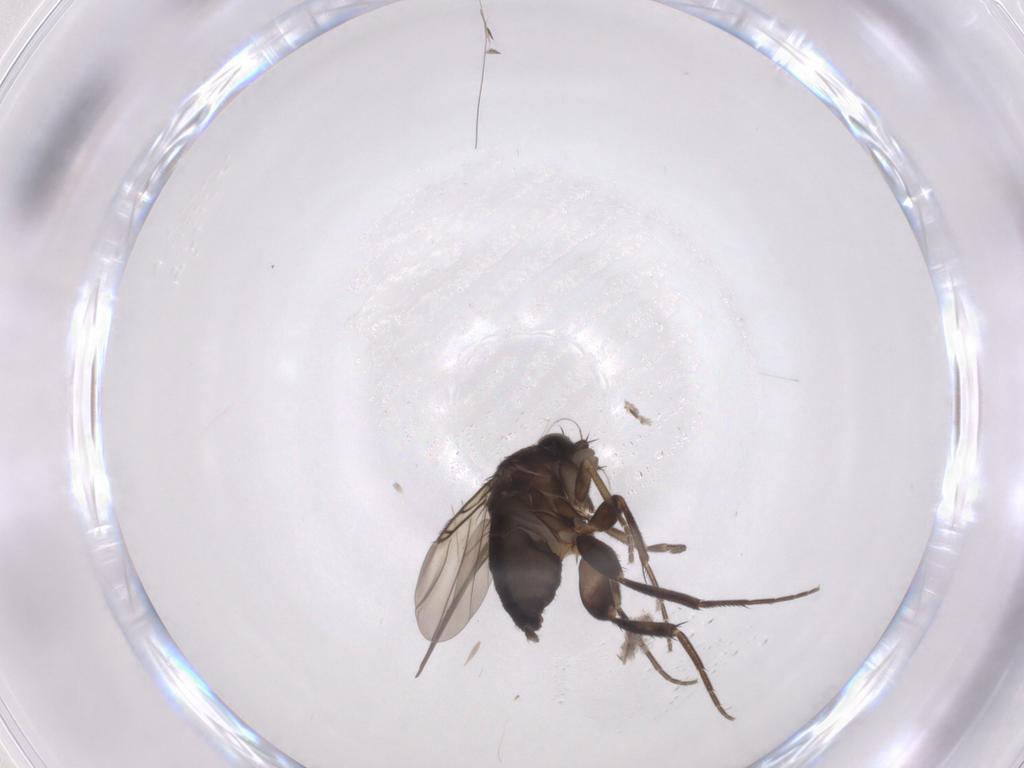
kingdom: Animalia
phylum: Arthropoda
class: Insecta
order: Diptera
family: Phoridae
